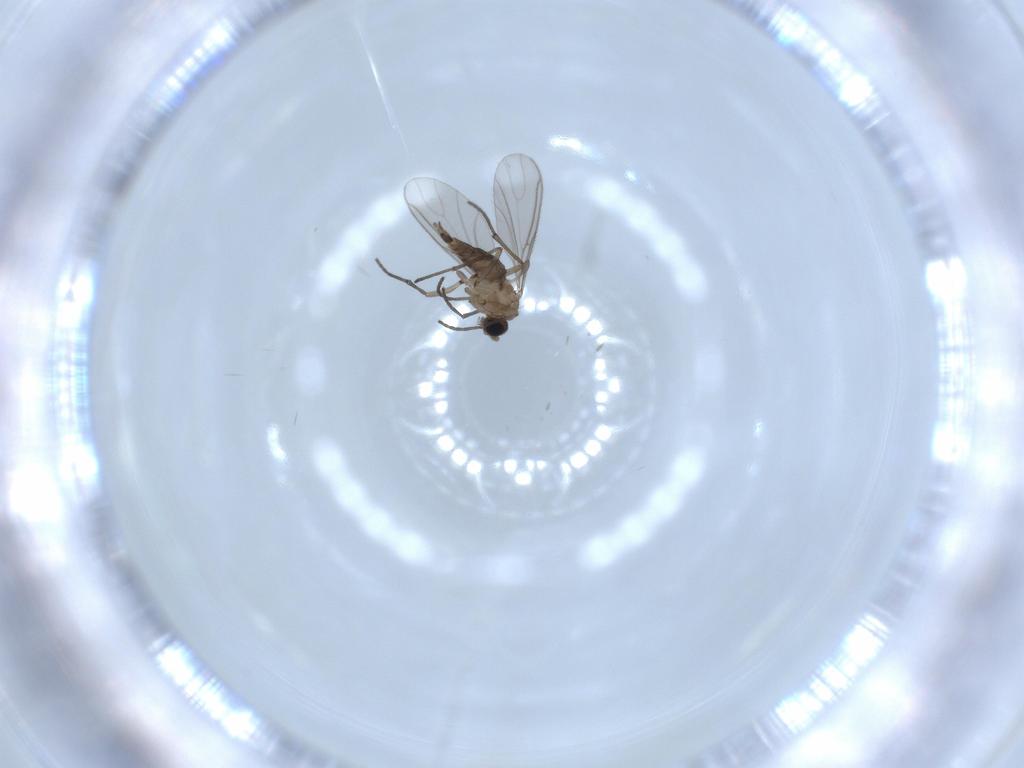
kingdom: Animalia
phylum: Arthropoda
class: Insecta
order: Diptera
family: Sciaridae
